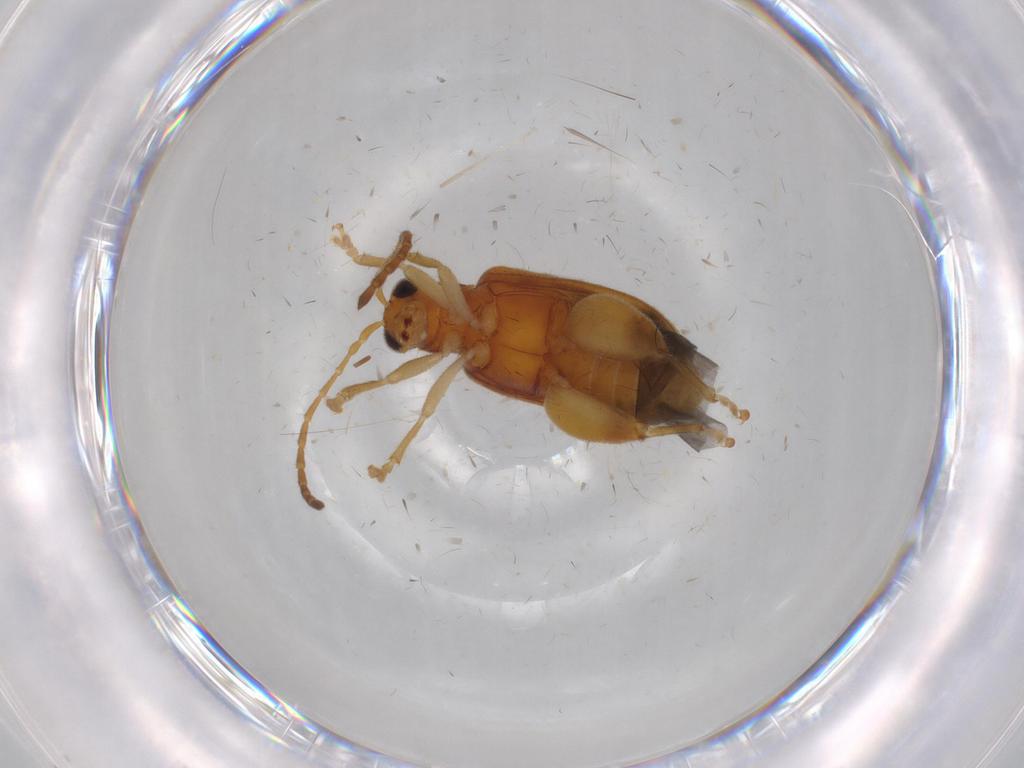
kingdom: Animalia
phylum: Arthropoda
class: Insecta
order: Coleoptera
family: Chrysomelidae
